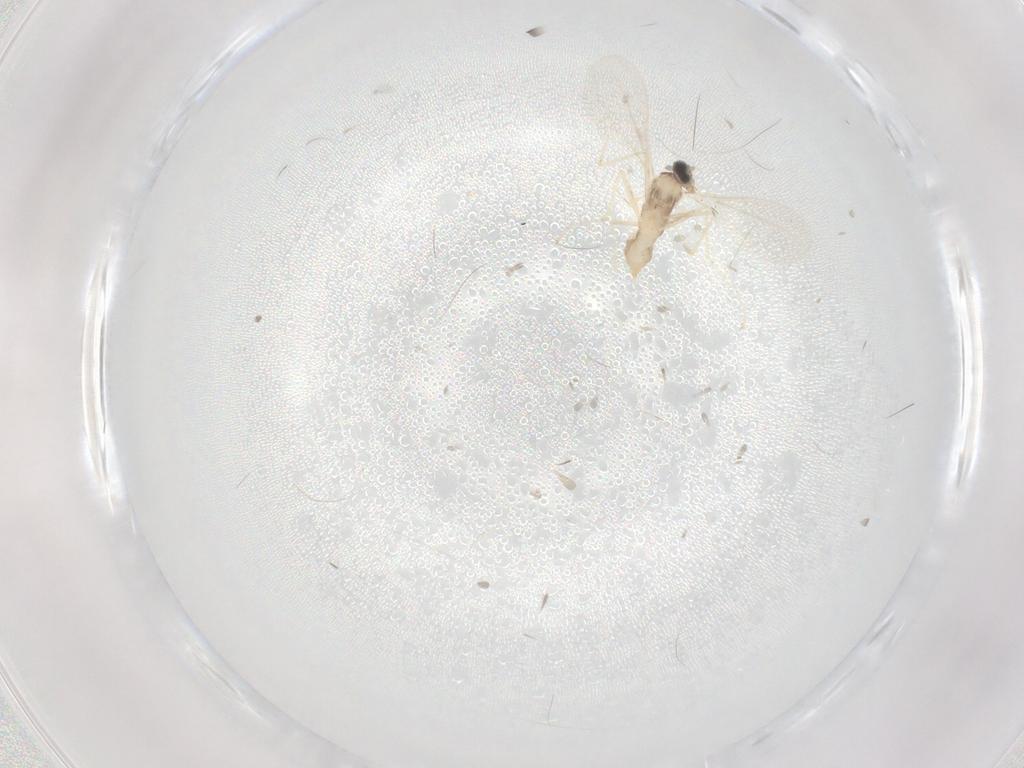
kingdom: Animalia
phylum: Arthropoda
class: Insecta
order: Diptera
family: Cecidomyiidae
